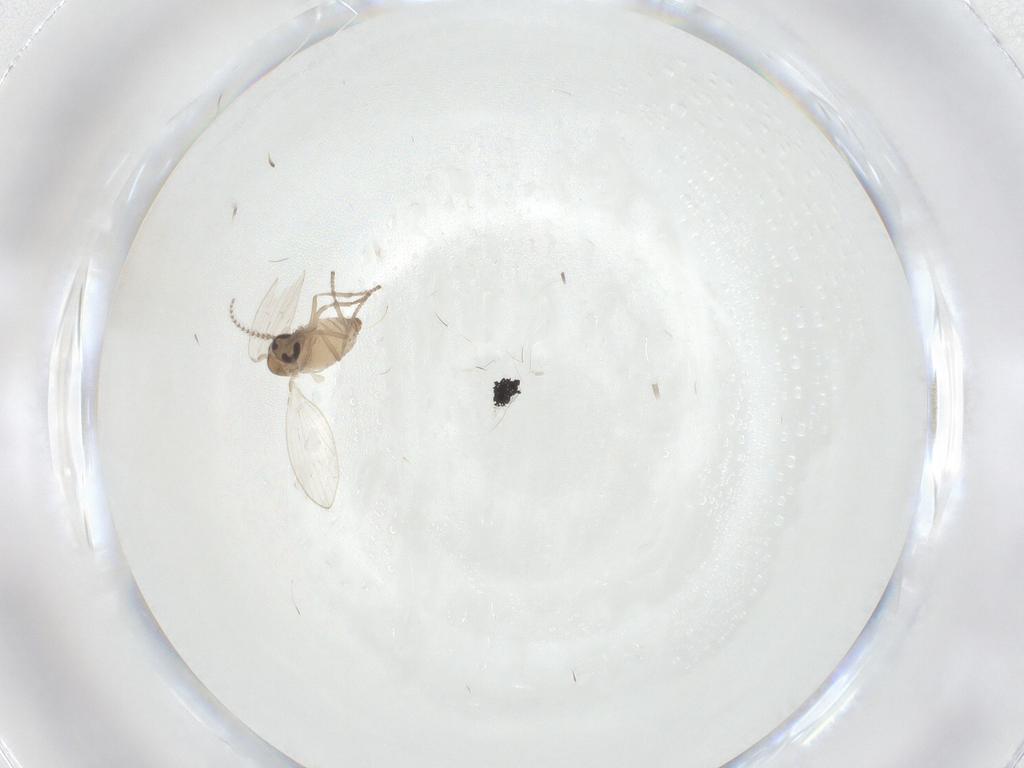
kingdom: Animalia
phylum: Arthropoda
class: Insecta
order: Diptera
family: Psychodidae
